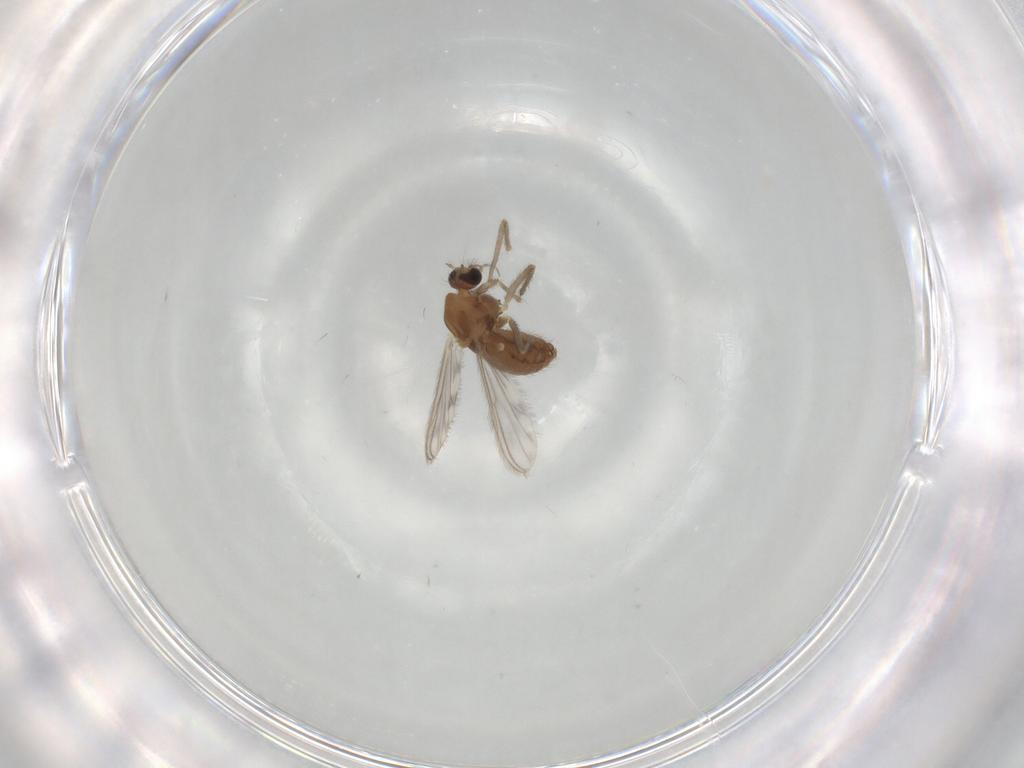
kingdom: Animalia
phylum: Arthropoda
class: Insecta
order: Diptera
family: Chironomidae
